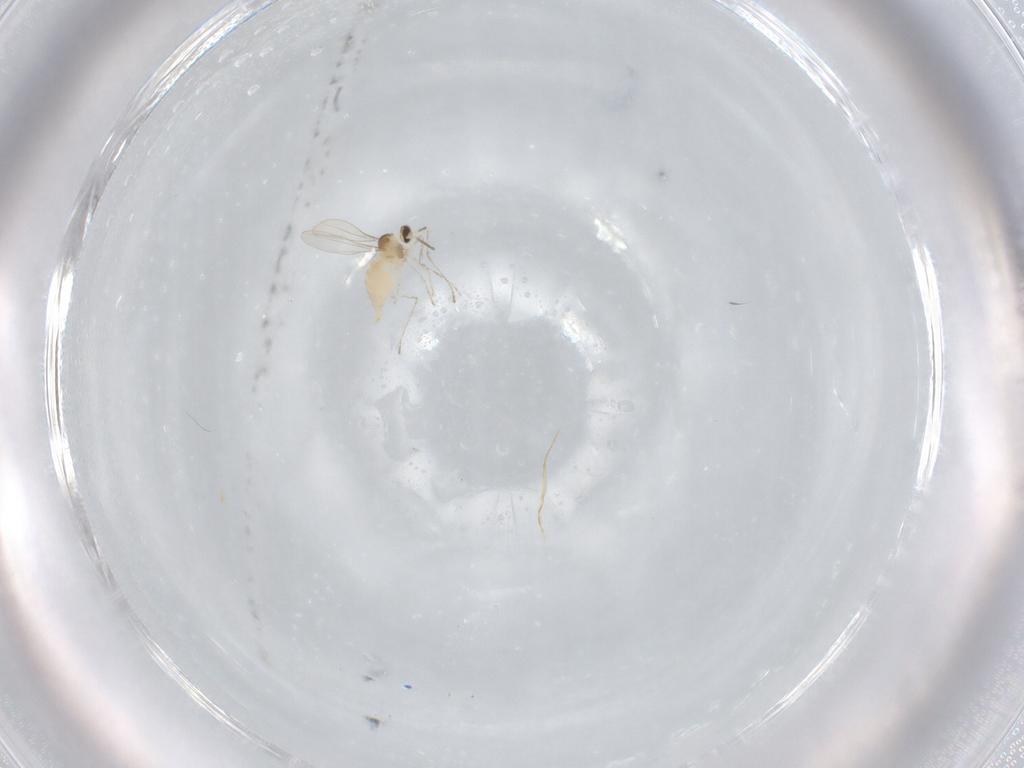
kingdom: Animalia
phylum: Arthropoda
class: Insecta
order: Diptera
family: Cecidomyiidae
